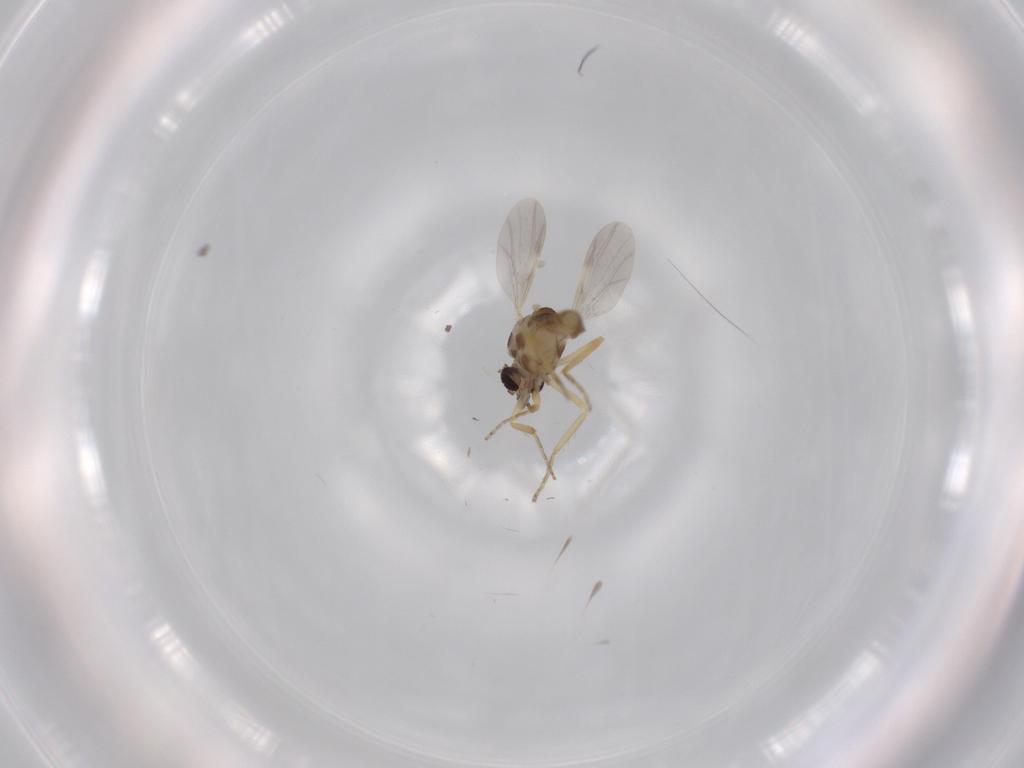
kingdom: Animalia
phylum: Arthropoda
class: Insecta
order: Diptera
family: Ceratopogonidae
